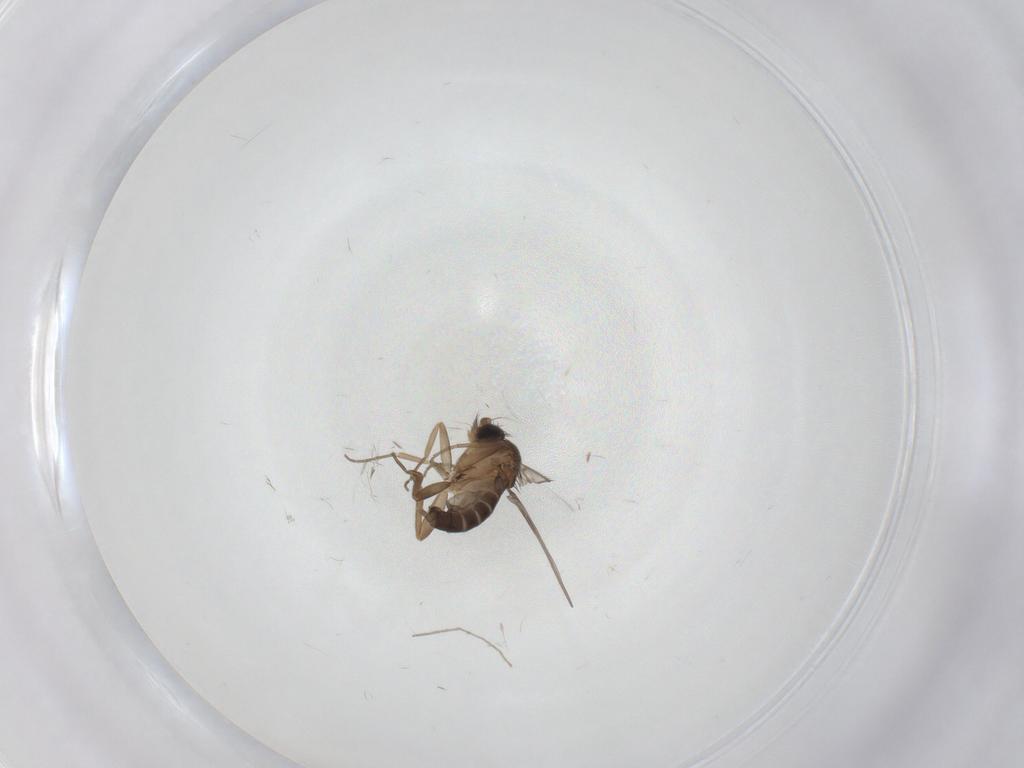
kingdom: Animalia
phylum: Arthropoda
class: Insecta
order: Diptera
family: Chironomidae
